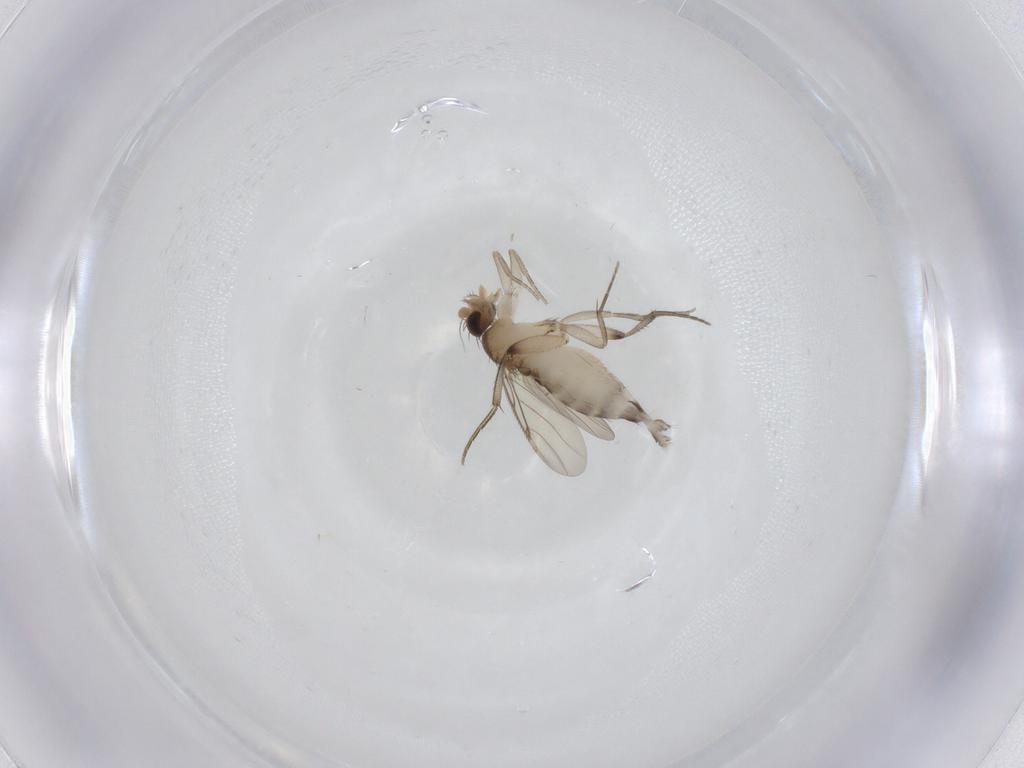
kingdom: Animalia
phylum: Arthropoda
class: Insecta
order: Diptera
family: Phoridae
